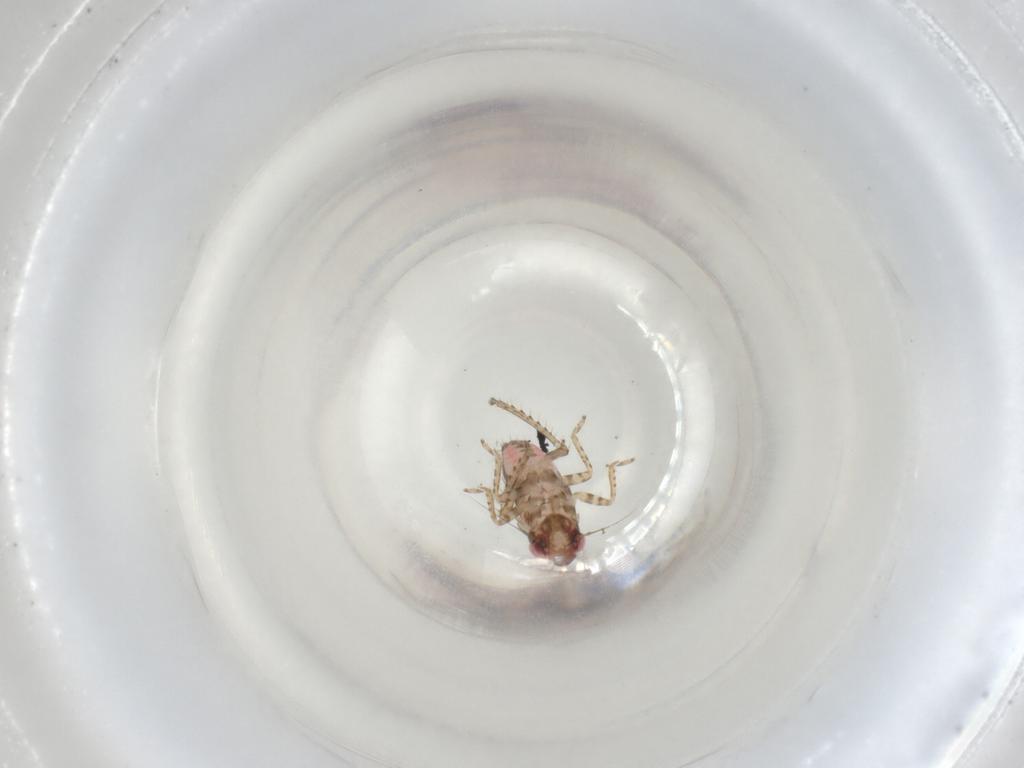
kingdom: Animalia
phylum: Arthropoda
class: Insecta
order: Hemiptera
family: Cicadellidae
